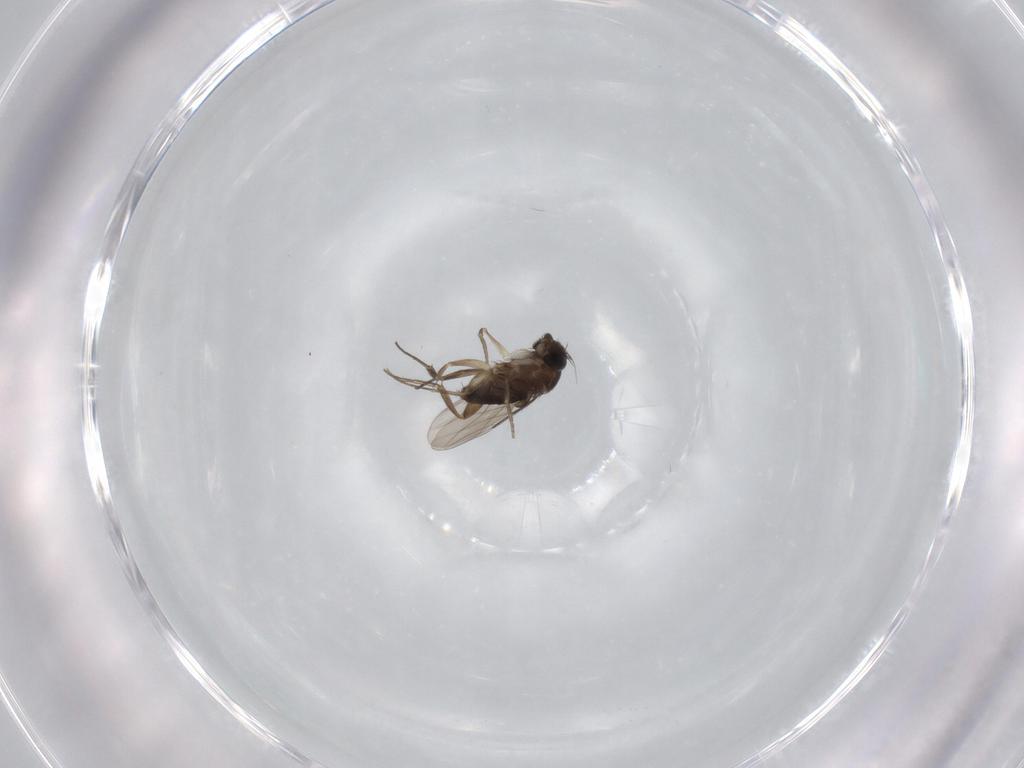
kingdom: Animalia
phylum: Arthropoda
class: Insecta
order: Diptera
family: Phoridae
